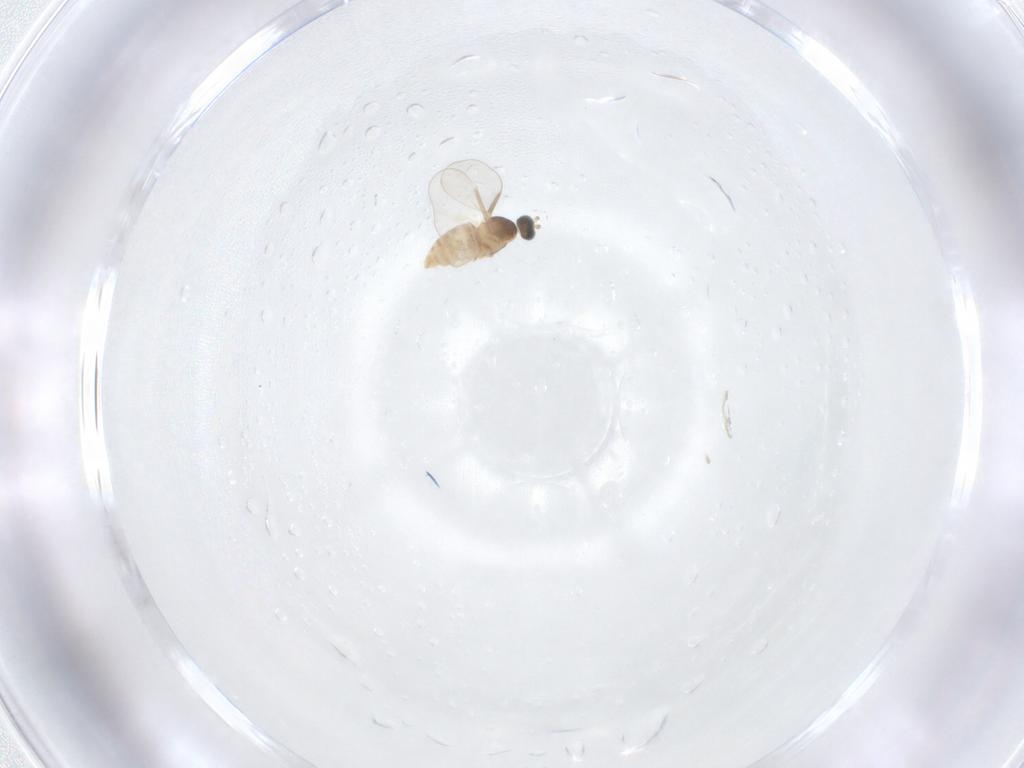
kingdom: Animalia
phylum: Arthropoda
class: Insecta
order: Diptera
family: Cecidomyiidae
